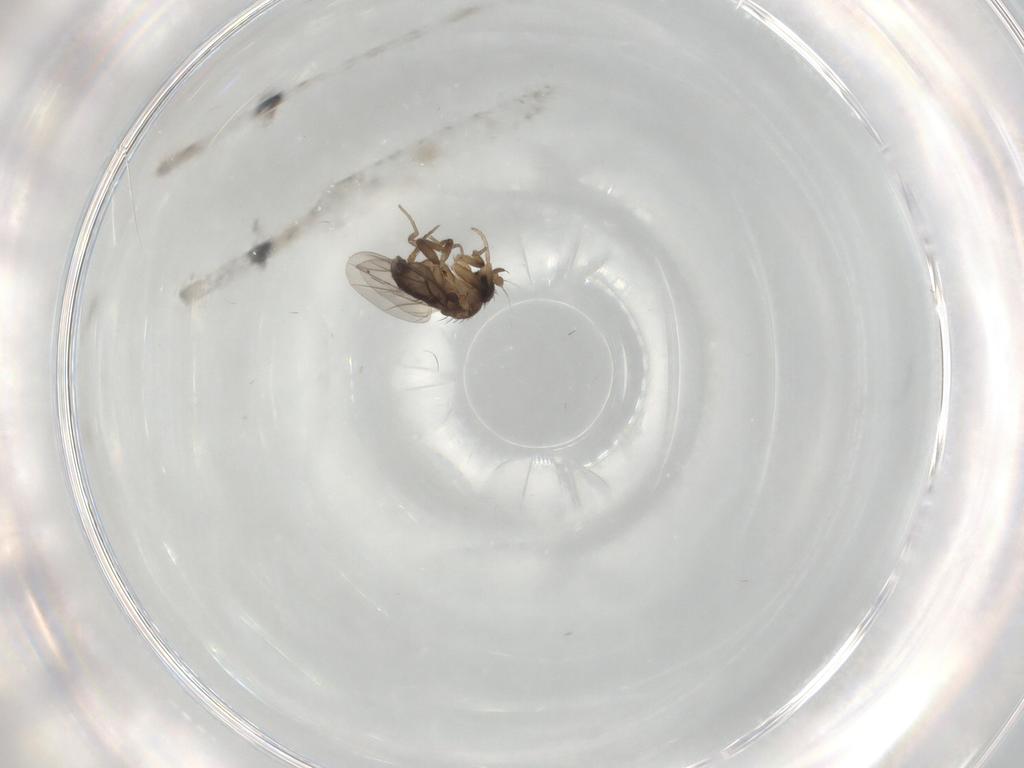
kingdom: Animalia
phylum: Arthropoda
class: Insecta
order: Diptera
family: Phoridae
